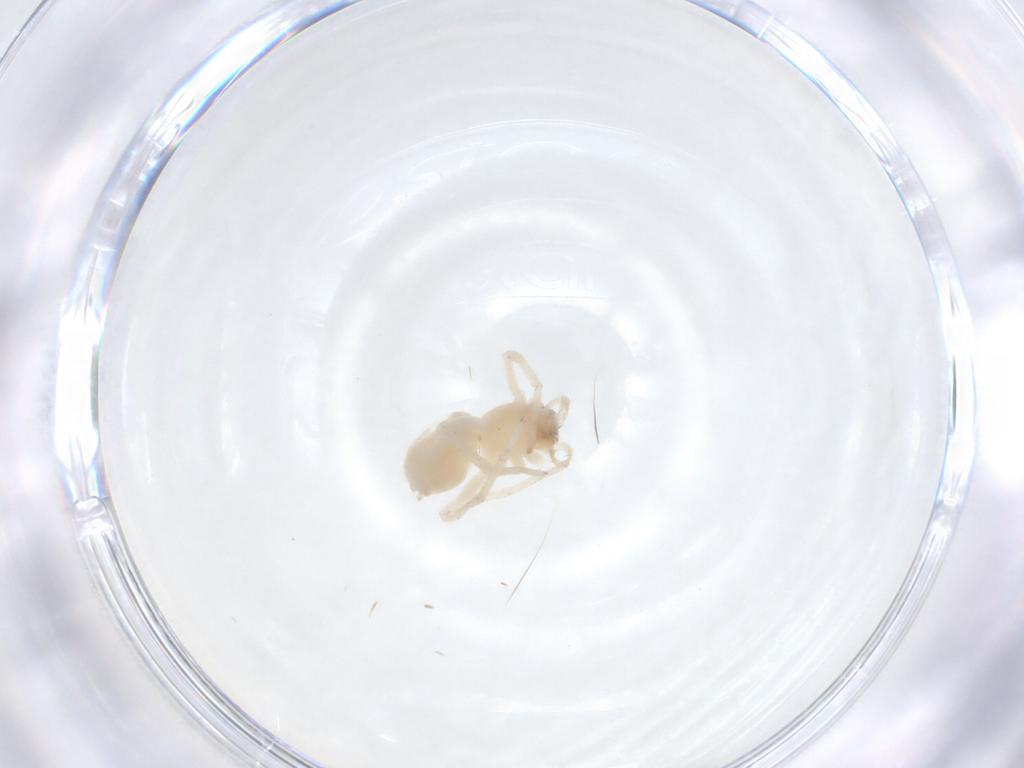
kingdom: Animalia
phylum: Arthropoda
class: Arachnida
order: Araneae
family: Anyphaenidae
